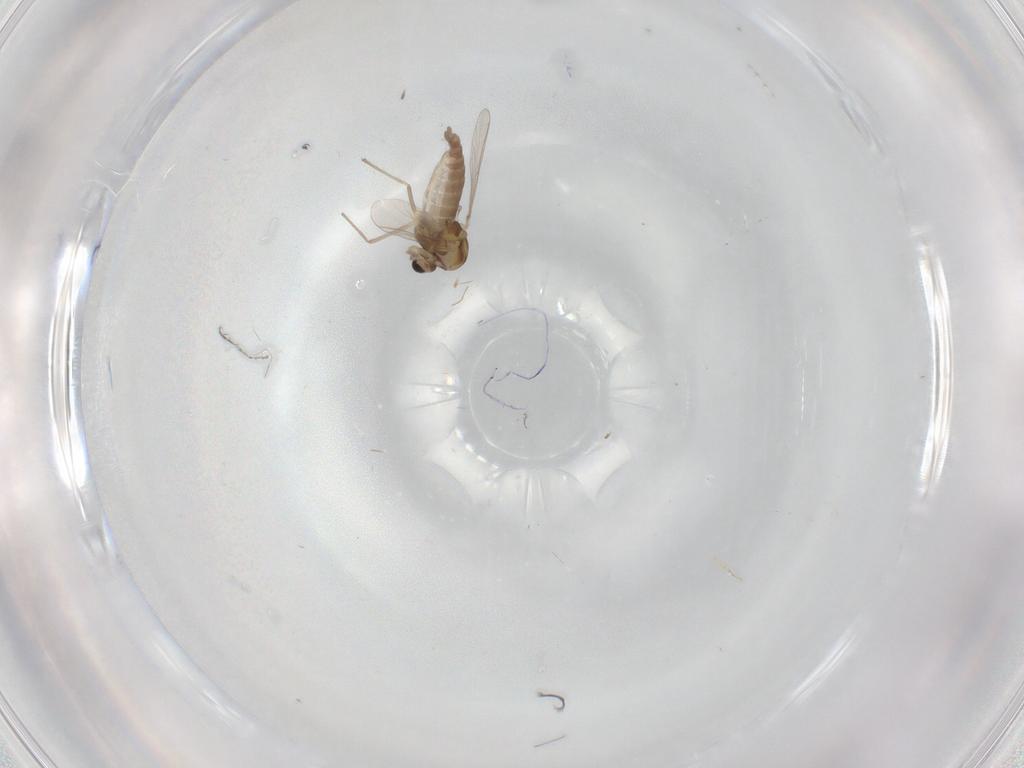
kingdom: Animalia
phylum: Arthropoda
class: Insecta
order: Diptera
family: Chironomidae
